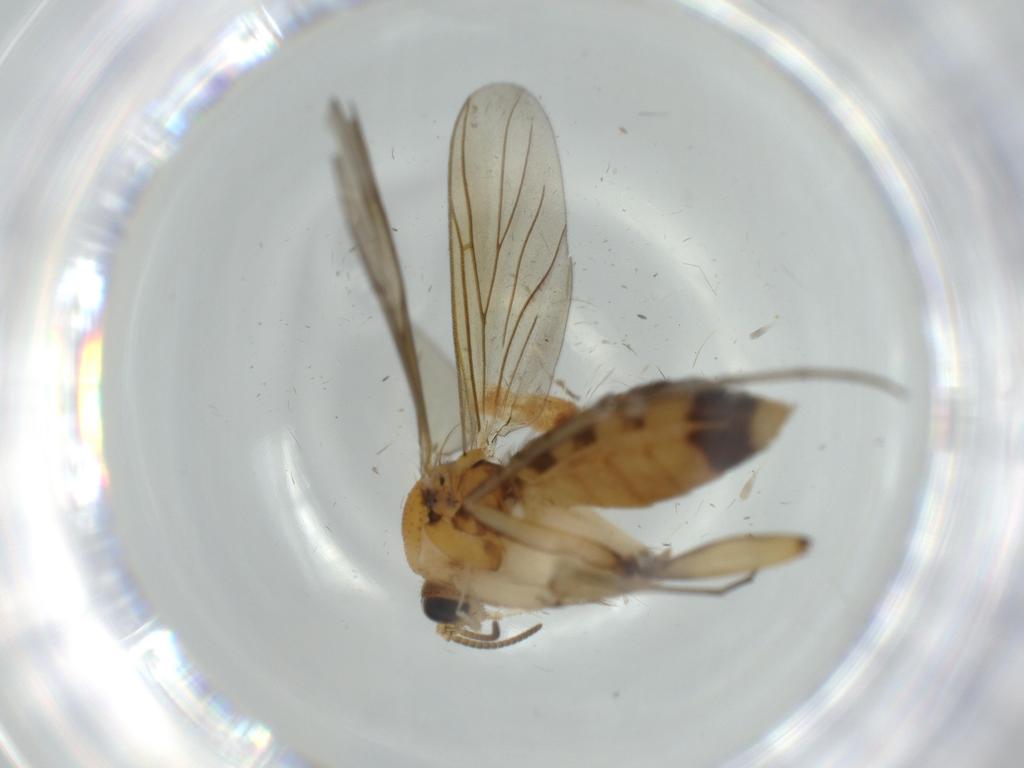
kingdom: Animalia
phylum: Arthropoda
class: Insecta
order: Diptera
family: Sciaridae
